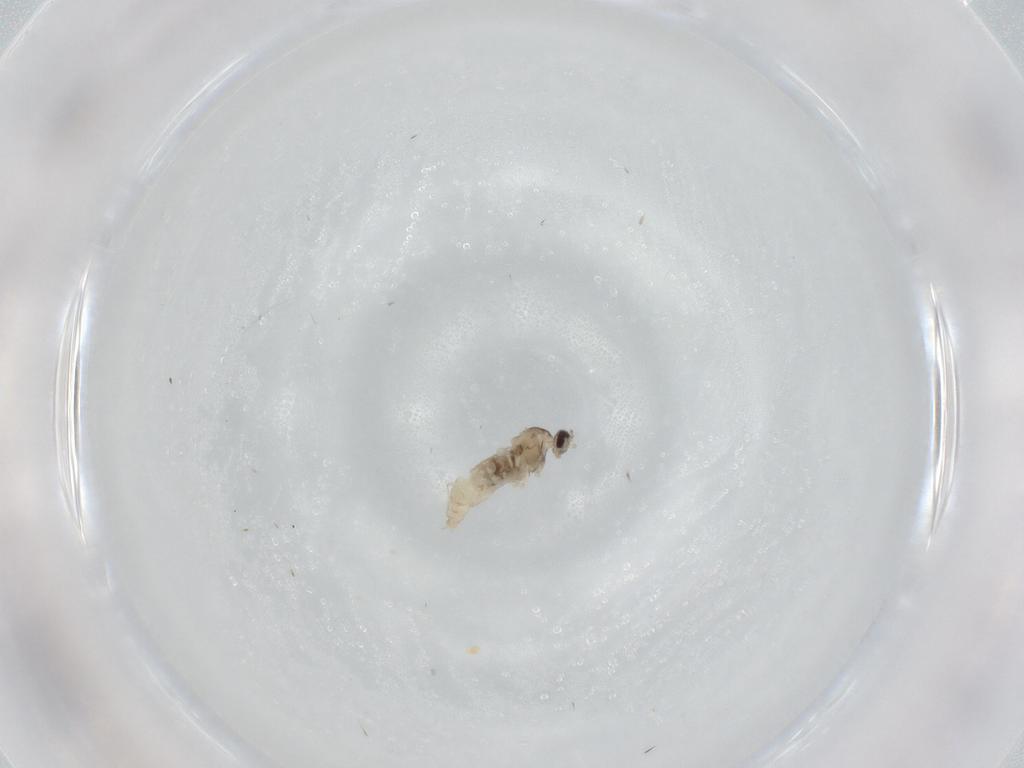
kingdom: Animalia
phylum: Arthropoda
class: Insecta
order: Diptera
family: Cecidomyiidae
